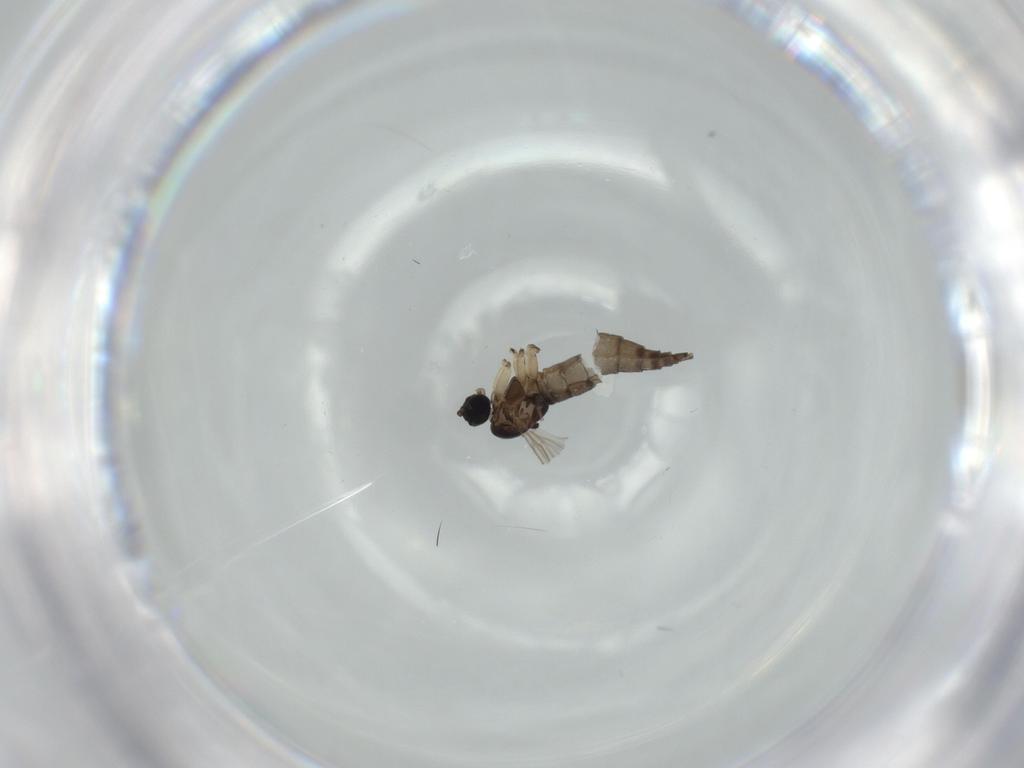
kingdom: Animalia
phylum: Arthropoda
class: Insecta
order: Diptera
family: Sciaridae
